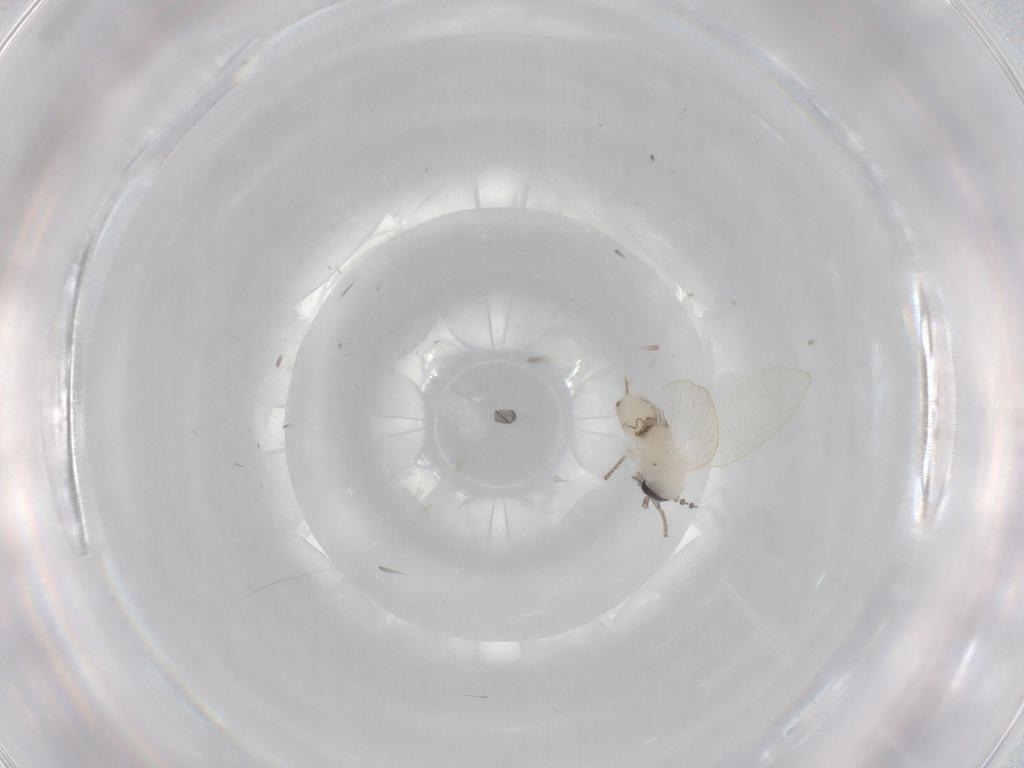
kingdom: Animalia
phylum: Arthropoda
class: Insecta
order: Diptera
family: Psychodidae
